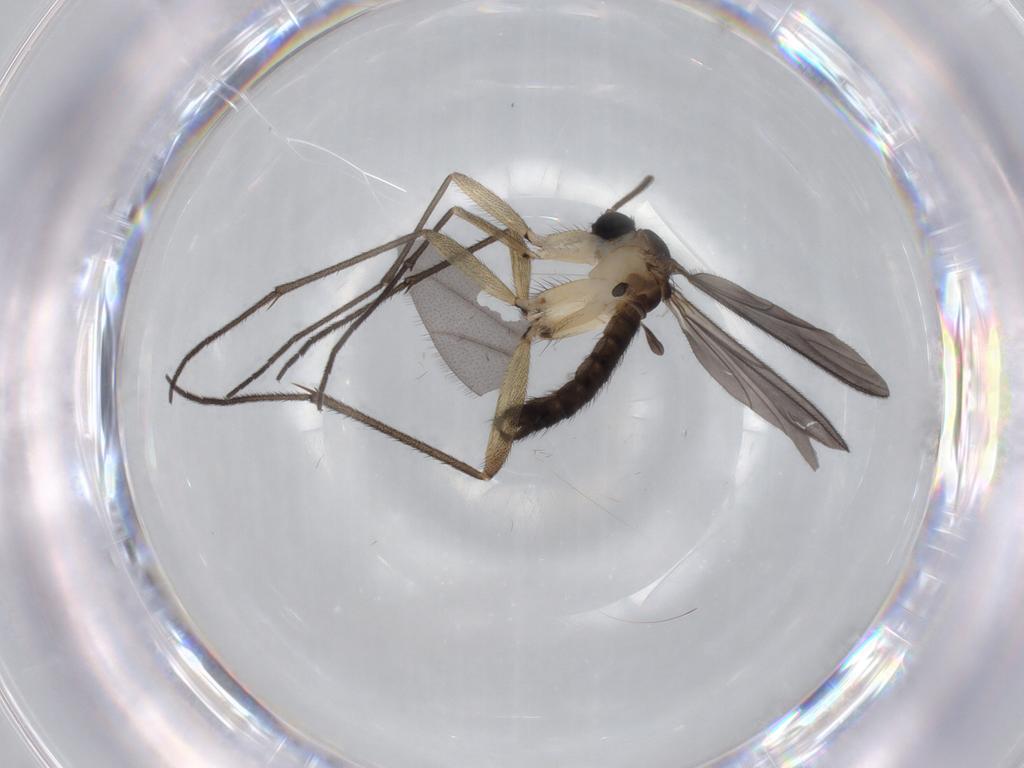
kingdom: Animalia
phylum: Arthropoda
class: Insecta
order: Diptera
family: Sciaridae
